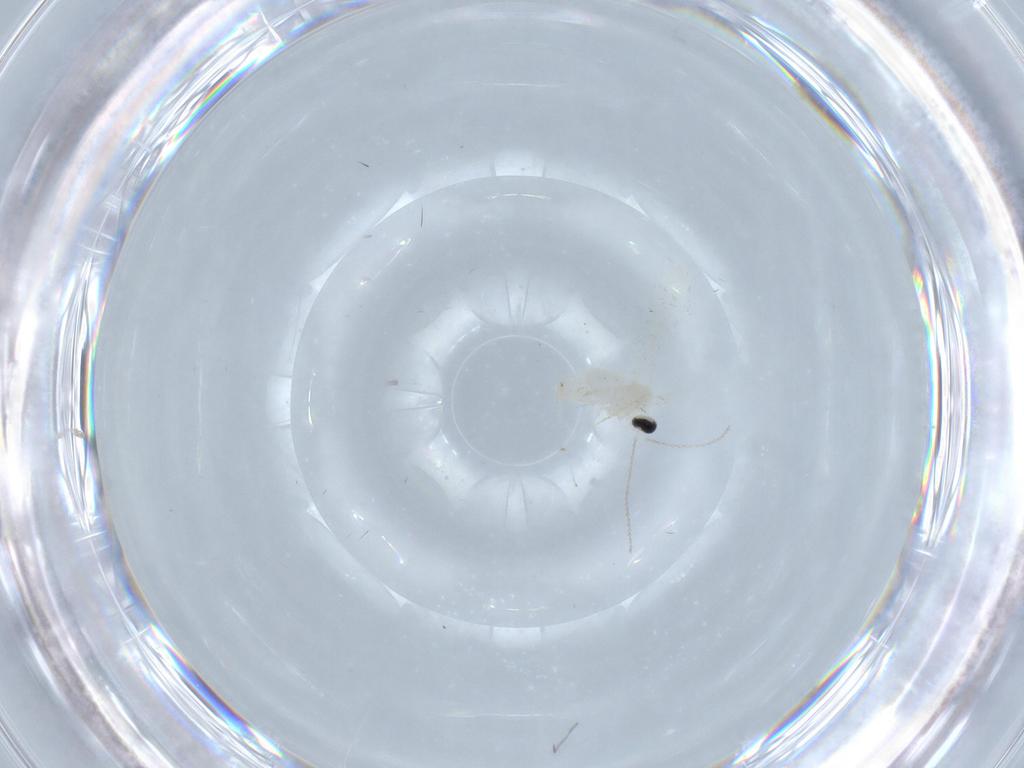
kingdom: Animalia
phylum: Arthropoda
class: Insecta
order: Diptera
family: Cecidomyiidae
